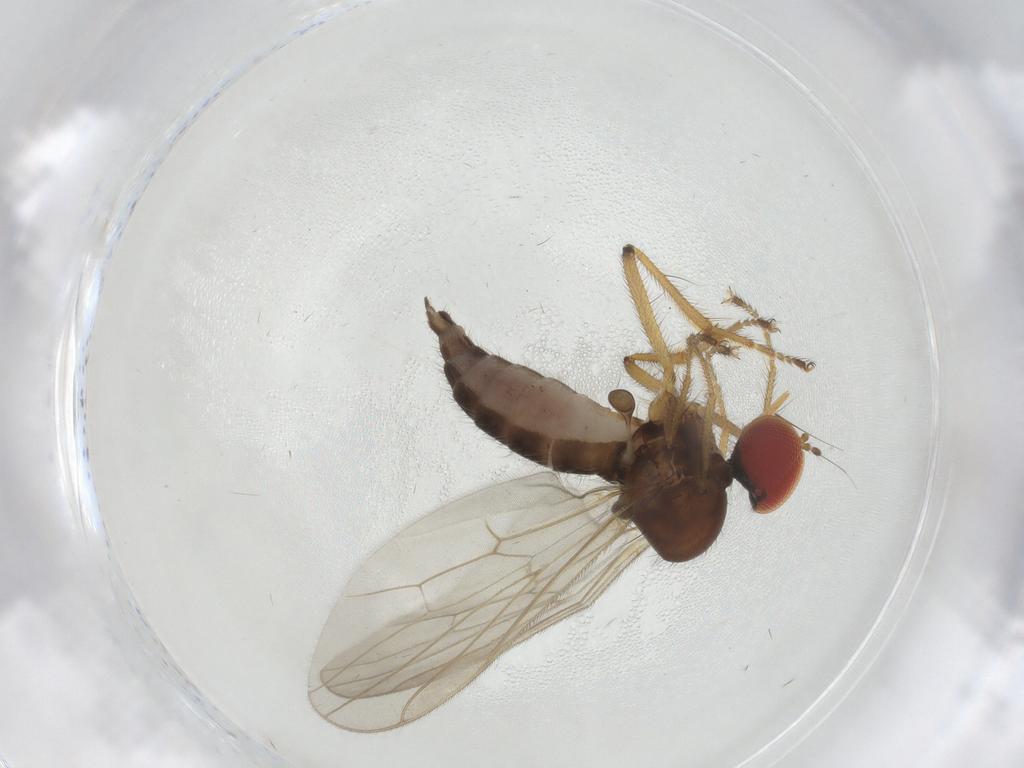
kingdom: Animalia
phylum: Arthropoda
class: Insecta
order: Diptera
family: Hybotidae
